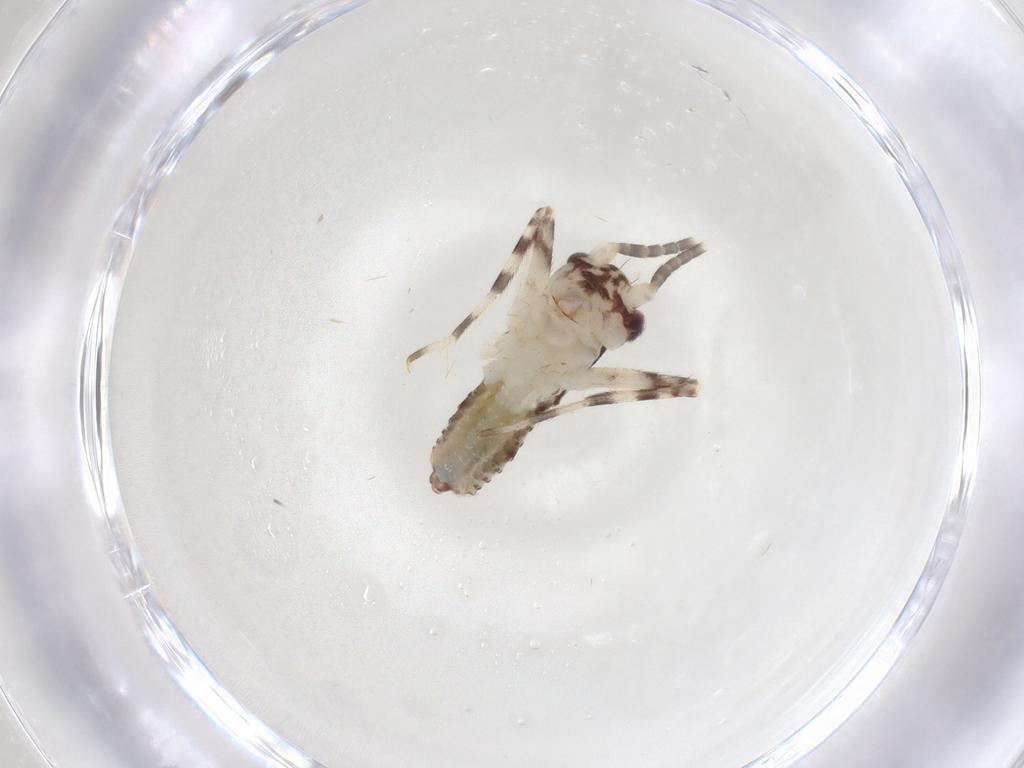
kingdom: Animalia
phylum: Arthropoda
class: Insecta
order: Orthoptera
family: Gryllidae
